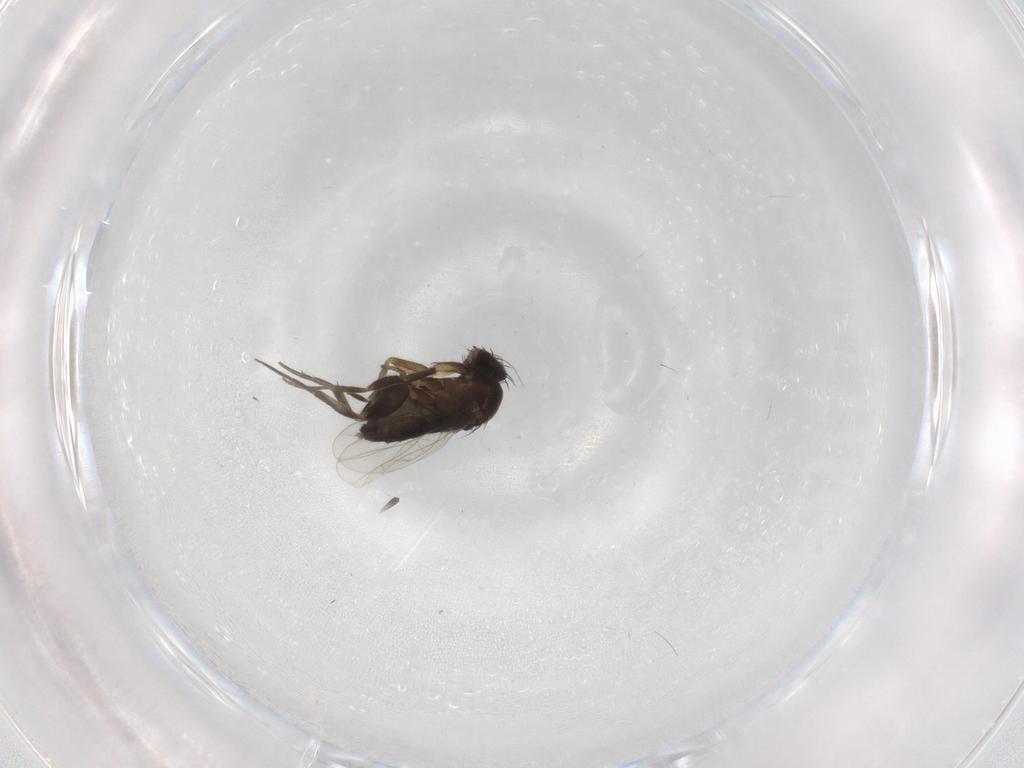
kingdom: Animalia
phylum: Arthropoda
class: Insecta
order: Diptera
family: Phoridae
